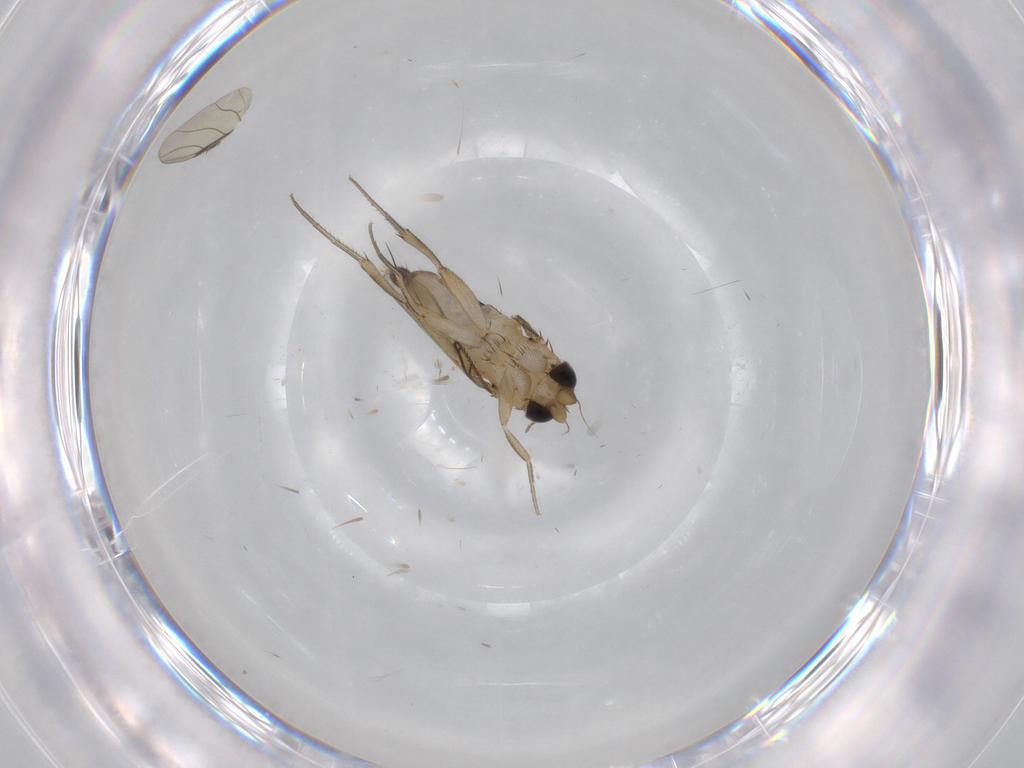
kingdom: Animalia
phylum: Arthropoda
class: Insecta
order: Diptera
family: Phoridae
